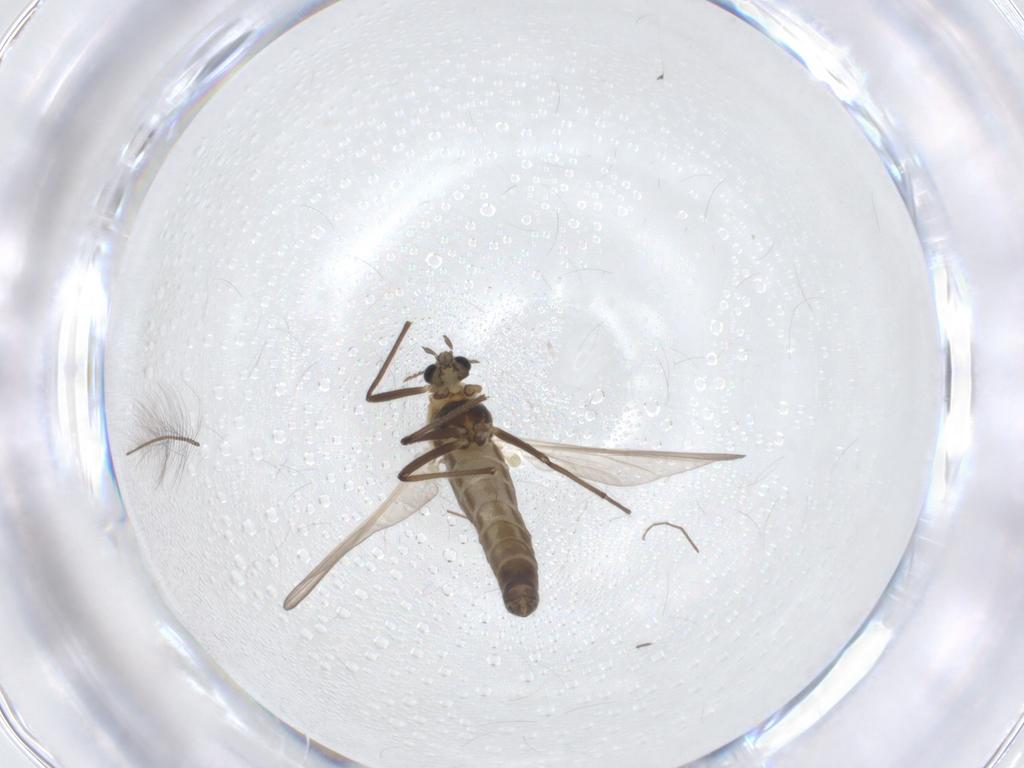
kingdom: Animalia
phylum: Arthropoda
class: Insecta
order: Diptera
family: Chironomidae
